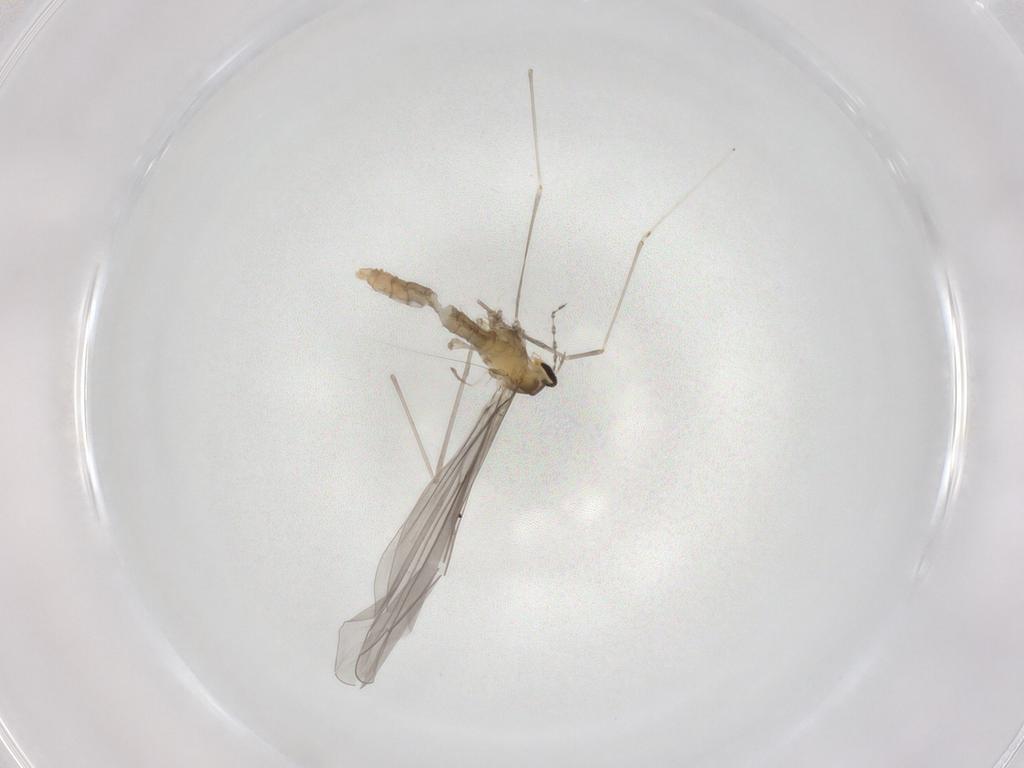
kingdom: Animalia
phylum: Arthropoda
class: Insecta
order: Diptera
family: Cecidomyiidae
